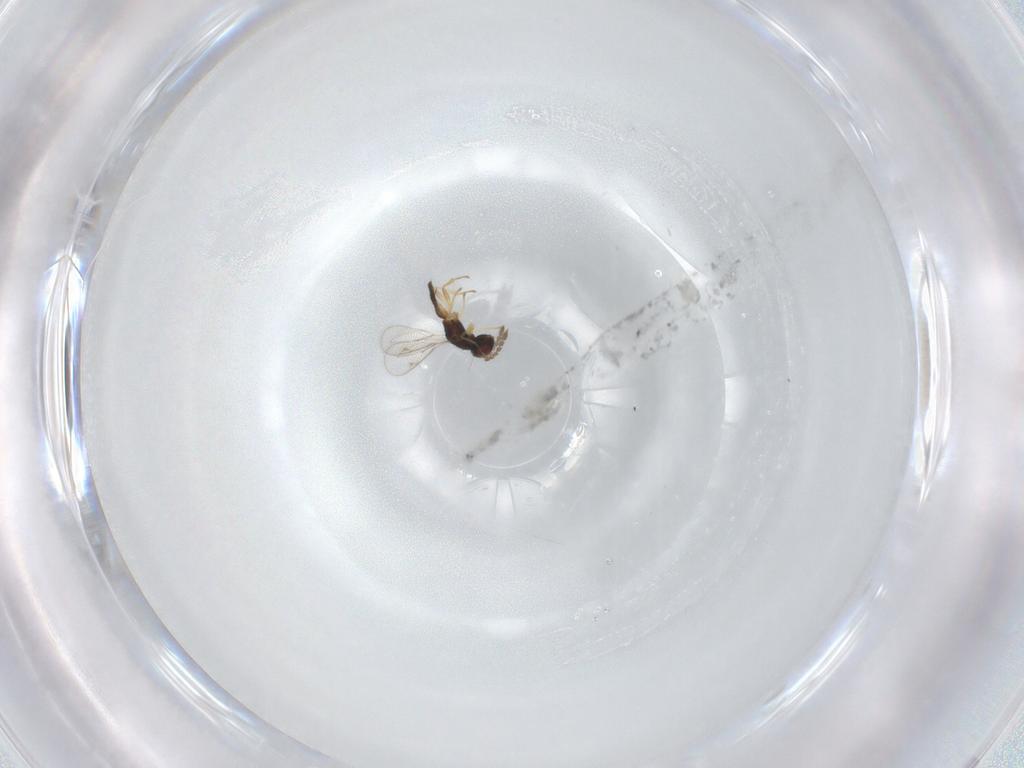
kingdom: Animalia
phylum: Arthropoda
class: Insecta
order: Hymenoptera
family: Eulophidae
